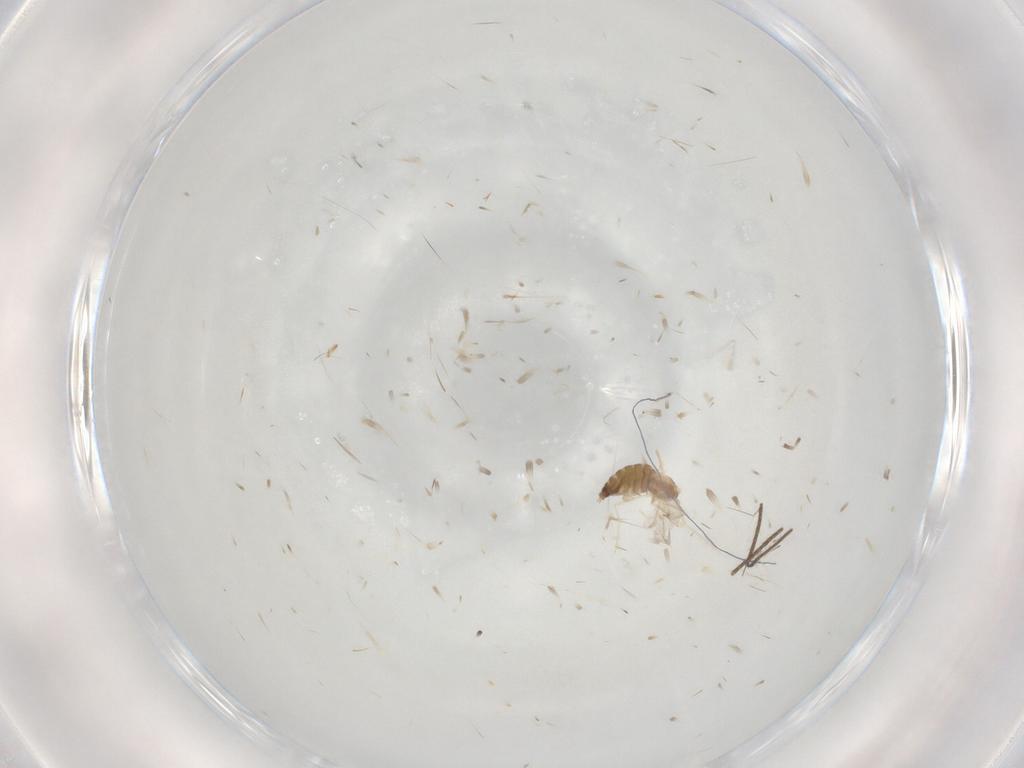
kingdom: Animalia
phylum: Arthropoda
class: Insecta
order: Diptera
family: Cecidomyiidae
